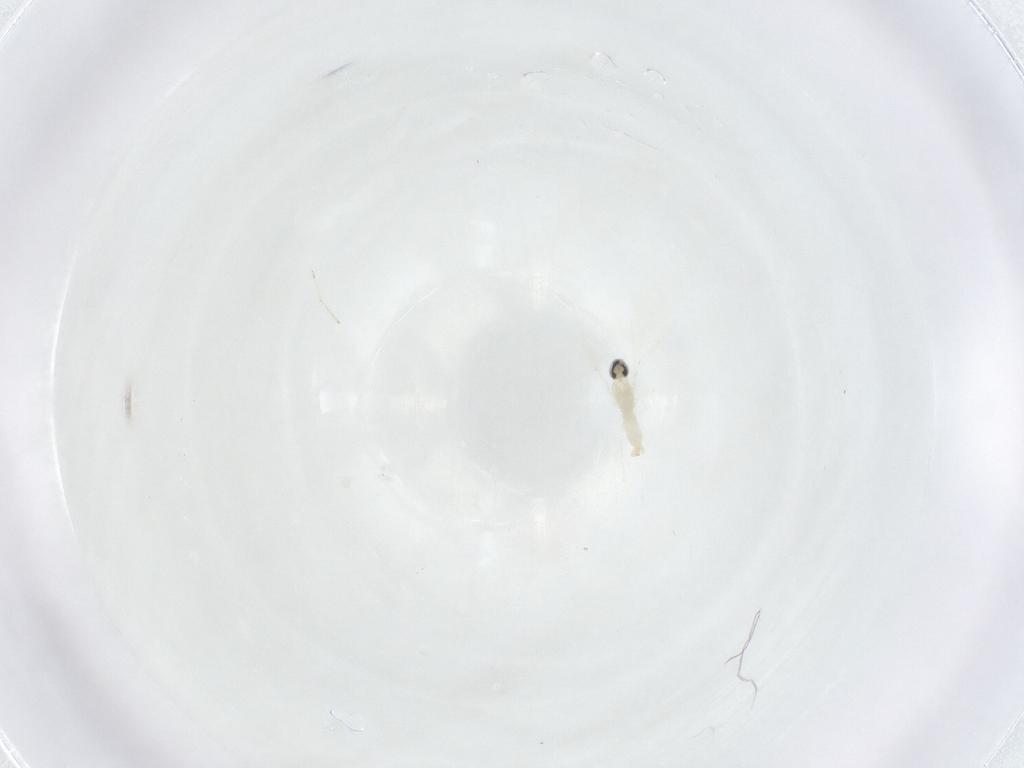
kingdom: Animalia
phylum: Arthropoda
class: Insecta
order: Diptera
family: Cecidomyiidae
